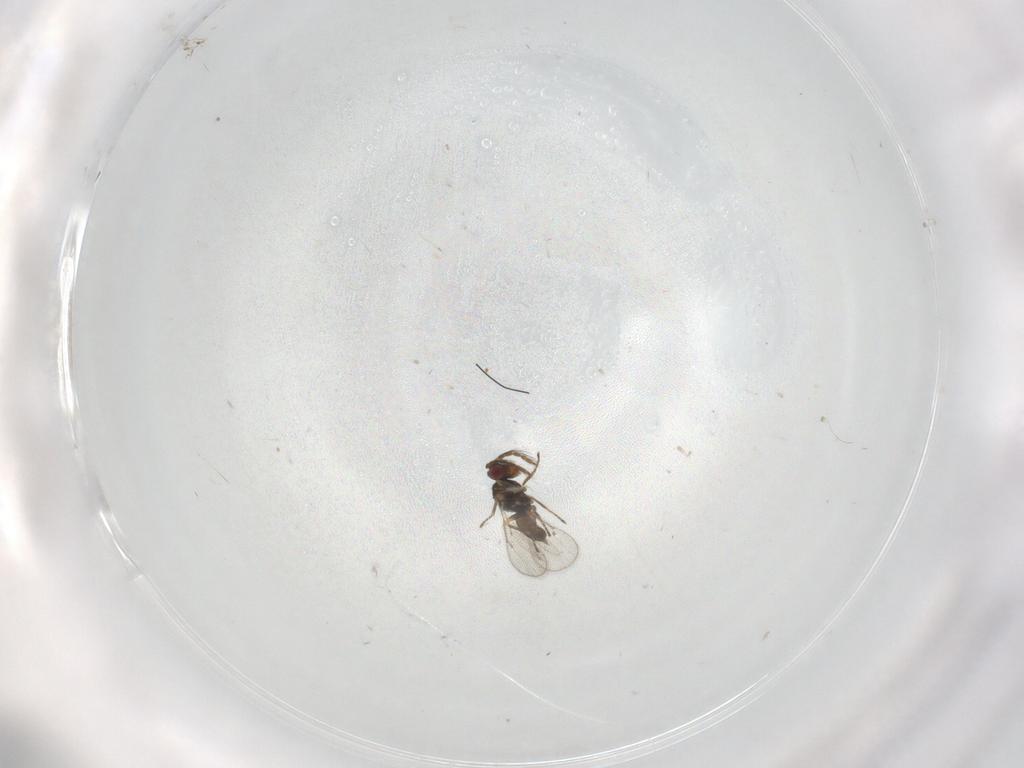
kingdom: Animalia
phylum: Arthropoda
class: Insecta
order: Hymenoptera
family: Eulophidae
